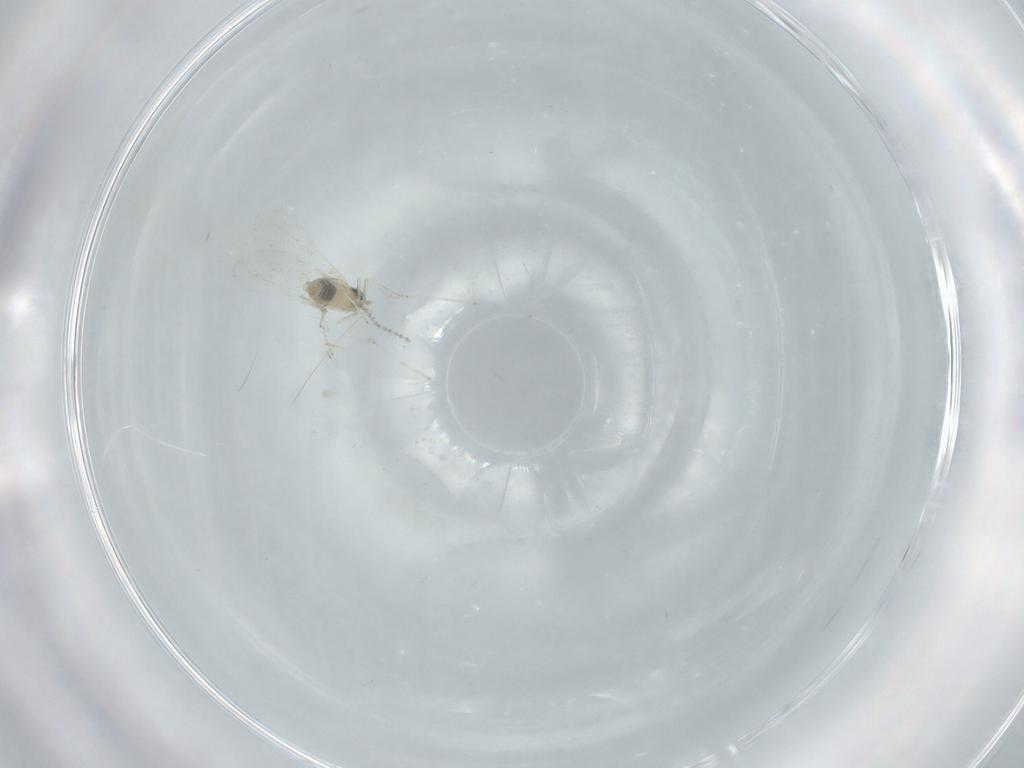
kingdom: Animalia
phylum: Arthropoda
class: Insecta
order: Diptera
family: Cecidomyiidae
